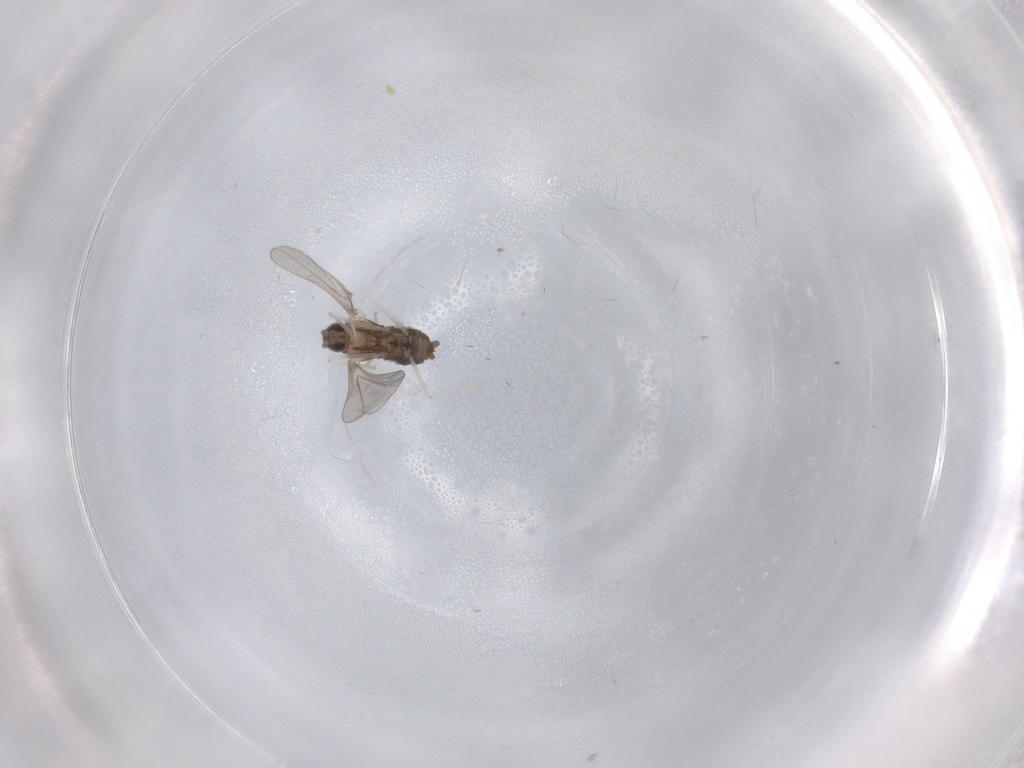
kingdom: Animalia
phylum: Arthropoda
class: Insecta
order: Diptera
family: Cecidomyiidae
